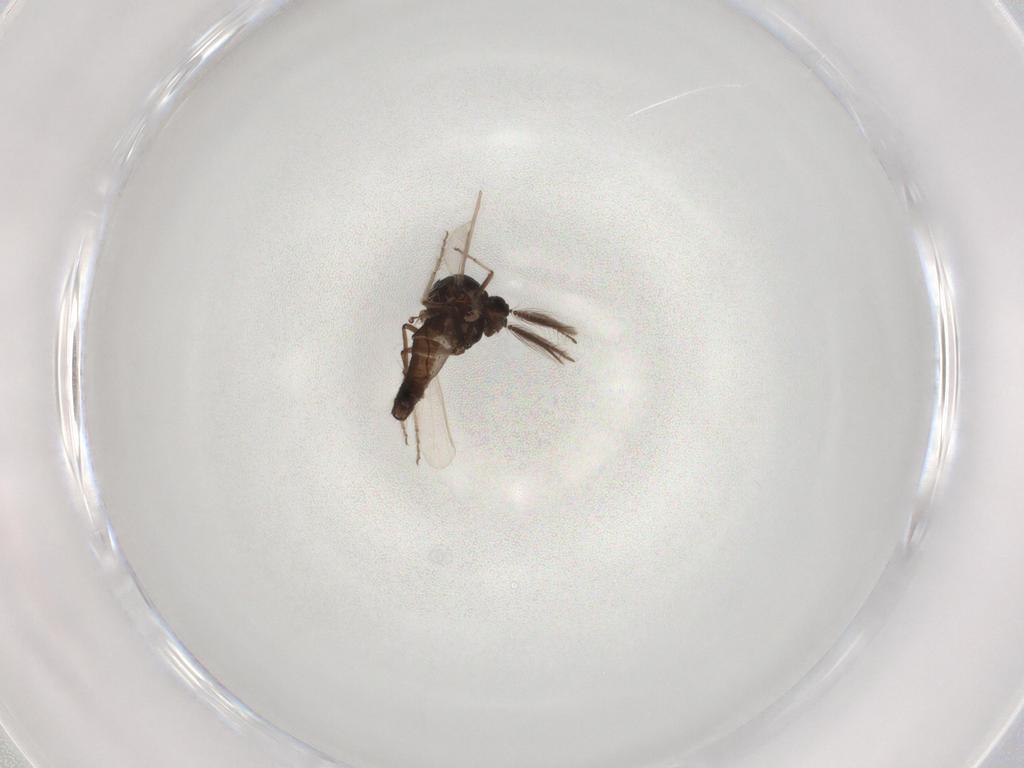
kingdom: Animalia
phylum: Arthropoda
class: Insecta
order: Diptera
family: Chironomidae
